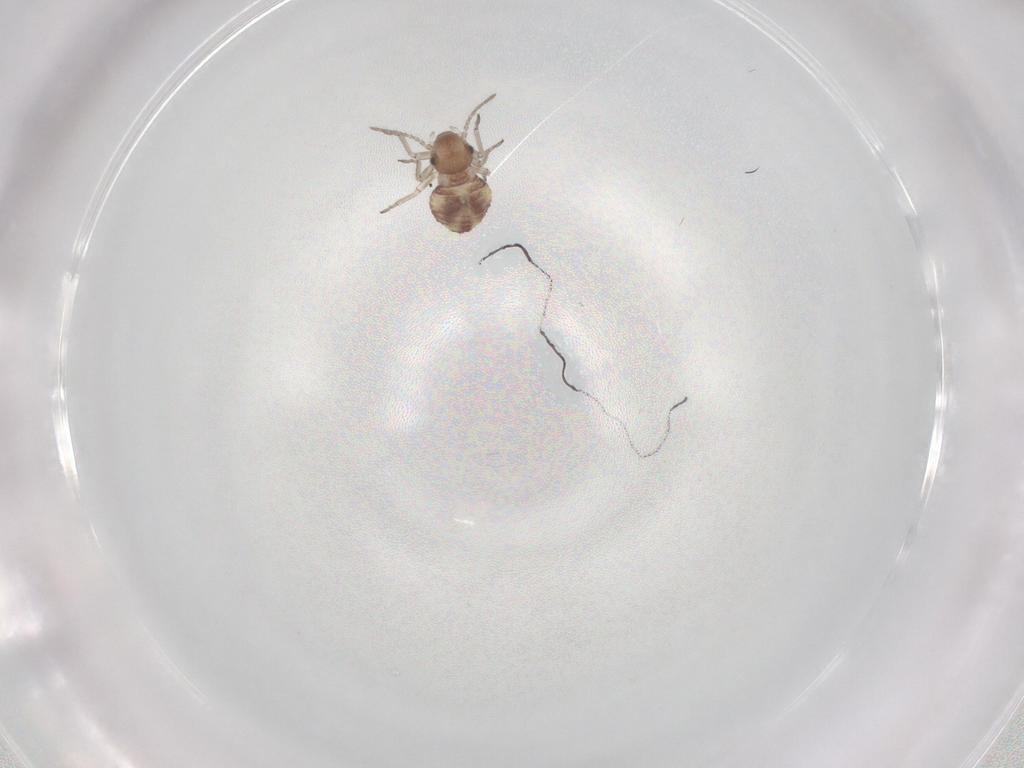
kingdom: Animalia
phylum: Arthropoda
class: Insecta
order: Psocodea
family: Psocidae
